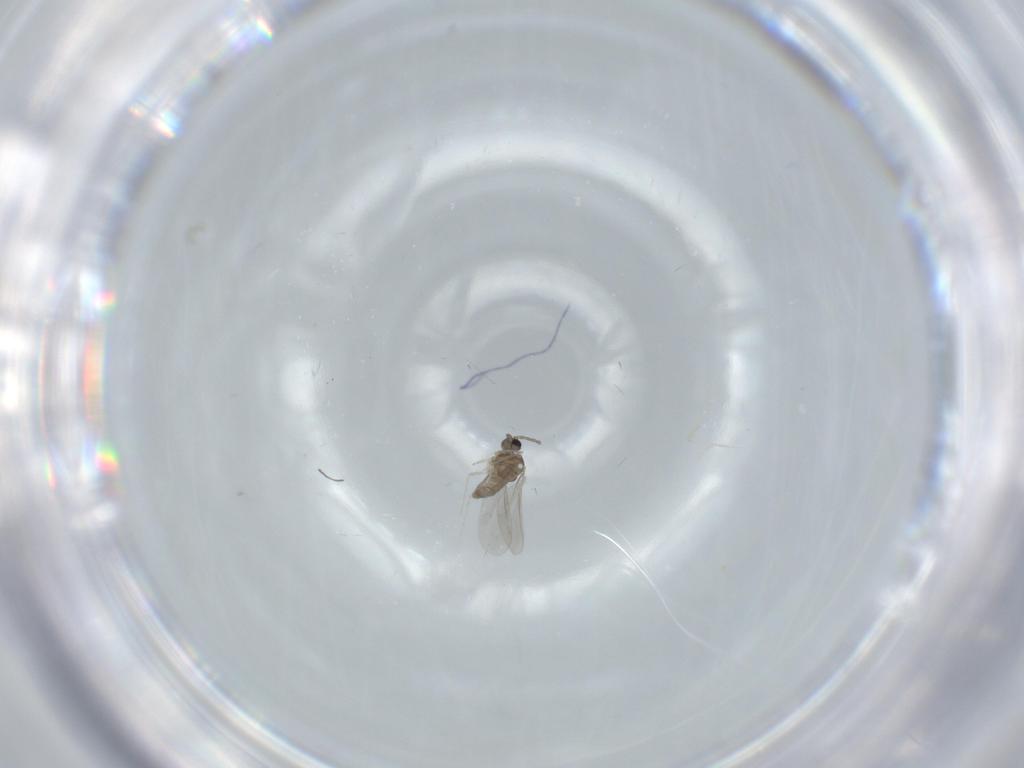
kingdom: Animalia
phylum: Arthropoda
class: Insecta
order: Diptera
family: Cecidomyiidae
